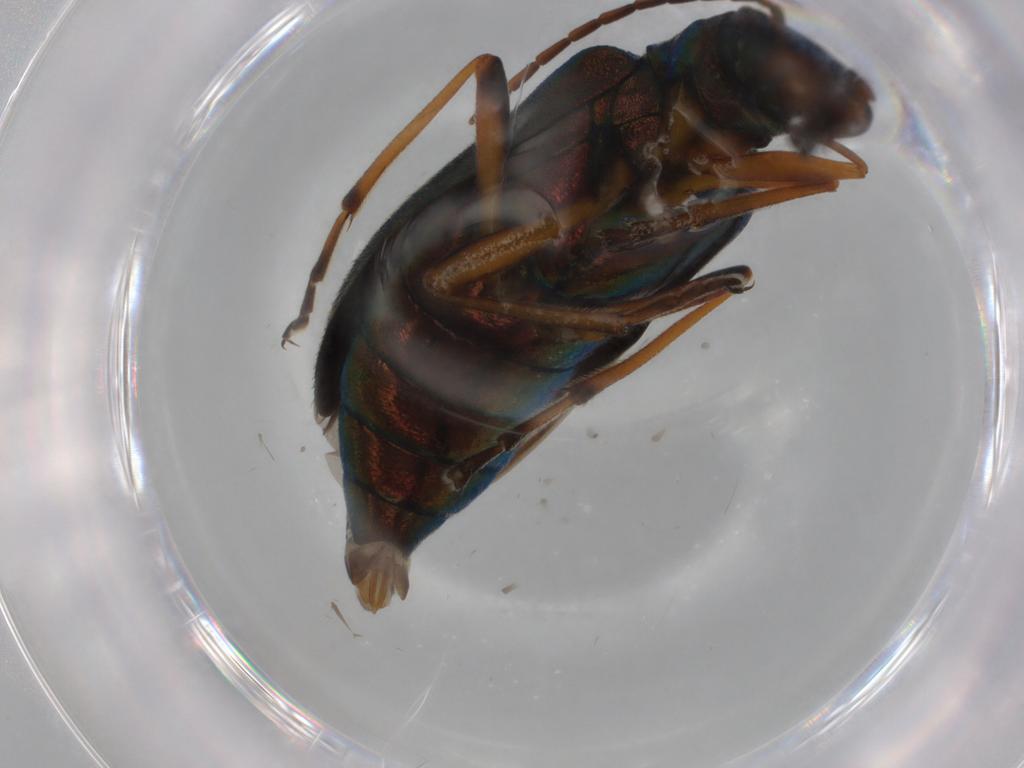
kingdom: Animalia
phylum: Arthropoda
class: Insecta
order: Coleoptera
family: Oedemeridae
